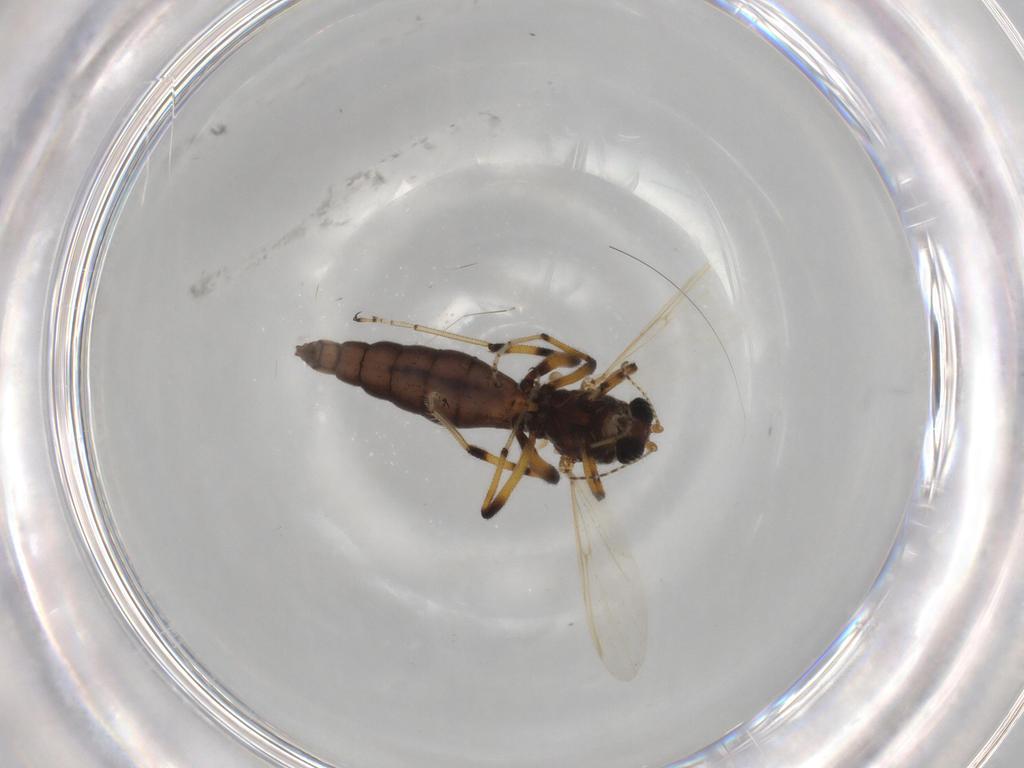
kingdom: Animalia
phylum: Arthropoda
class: Insecta
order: Diptera
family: Ceratopogonidae
